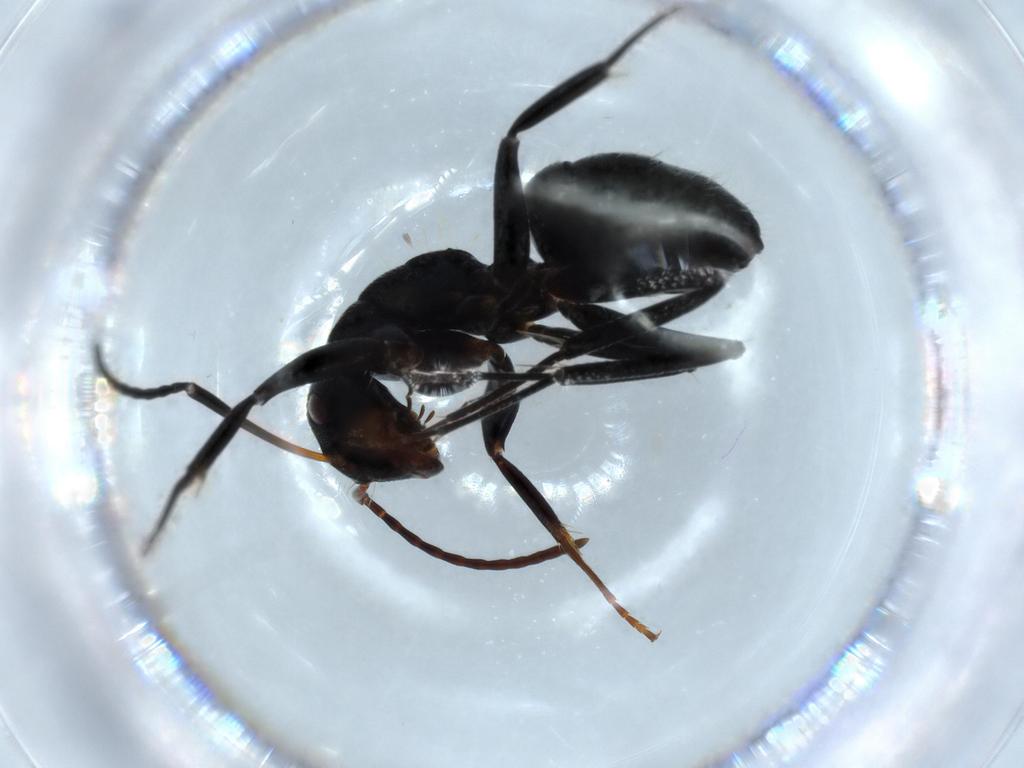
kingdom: Animalia
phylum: Arthropoda
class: Insecta
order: Hymenoptera
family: Formicidae
